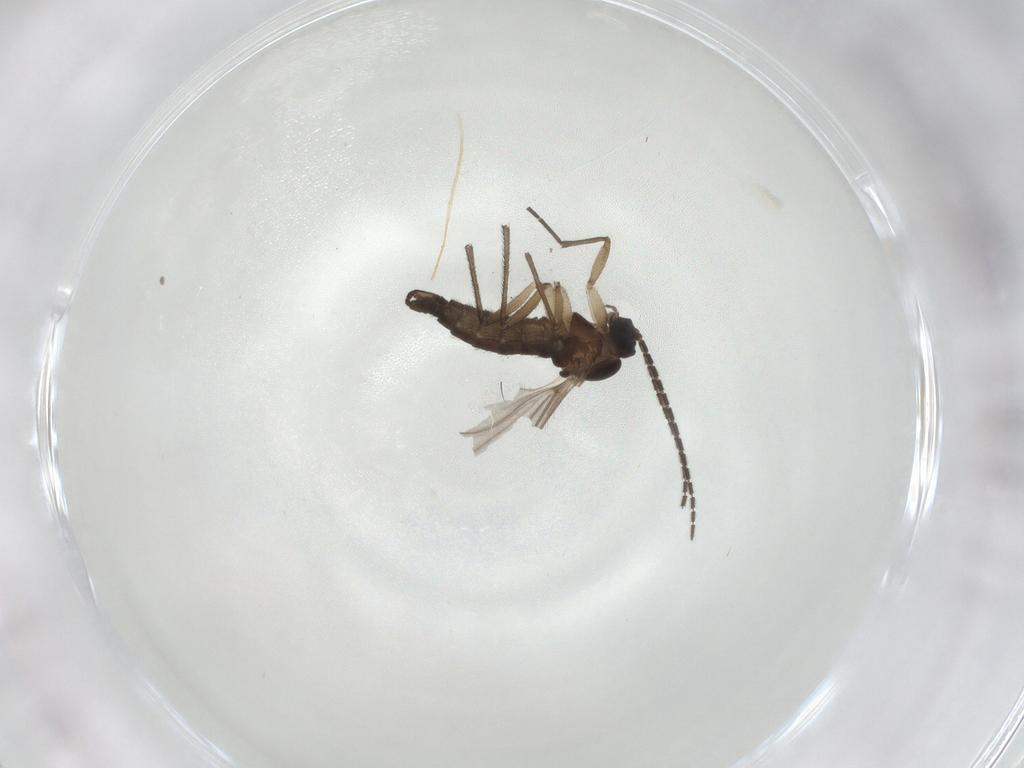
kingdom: Animalia
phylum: Arthropoda
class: Insecta
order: Diptera
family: Sciaridae
